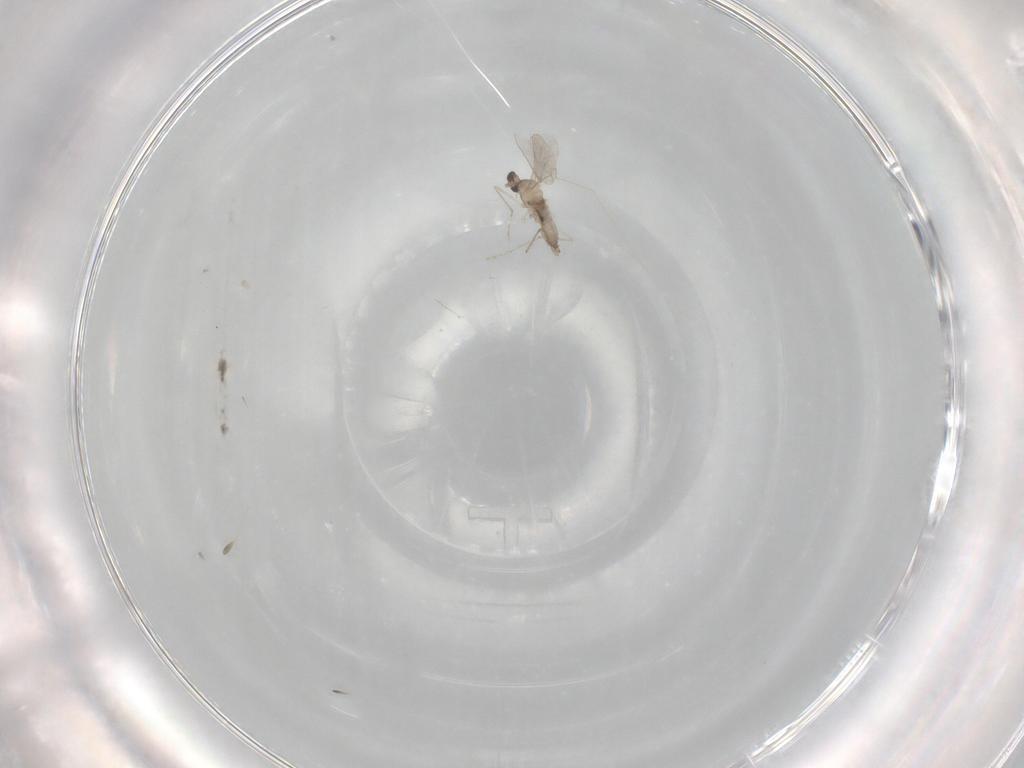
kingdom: Animalia
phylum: Arthropoda
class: Insecta
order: Diptera
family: Cecidomyiidae
